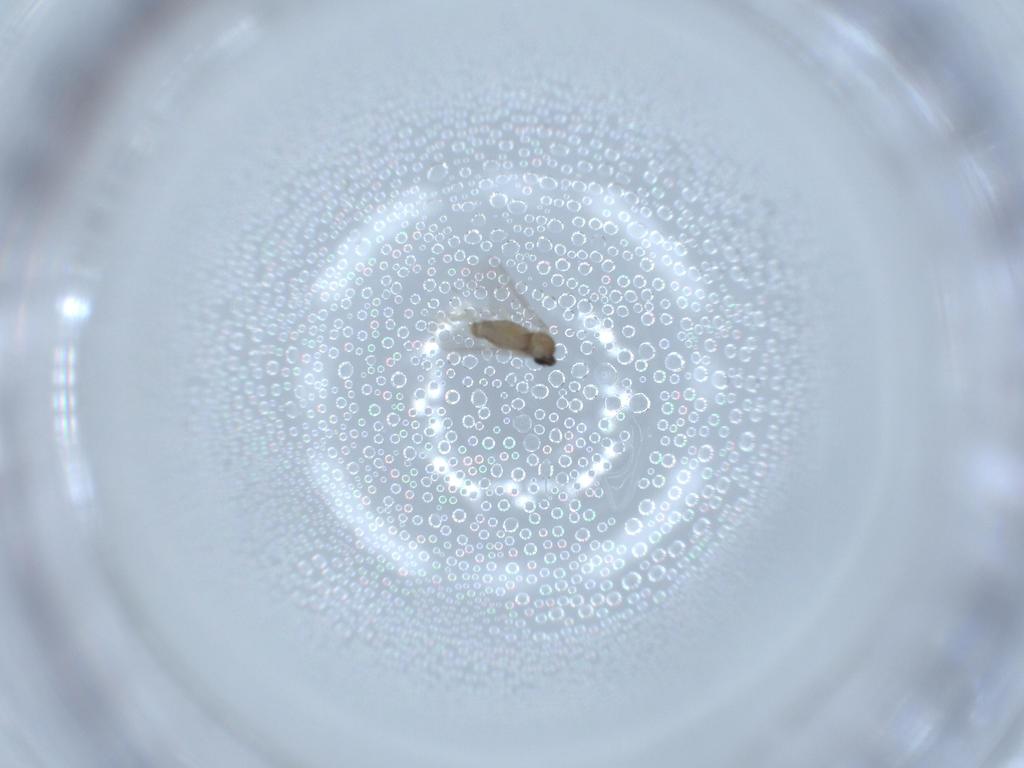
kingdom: Animalia
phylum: Arthropoda
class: Insecta
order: Diptera
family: Cecidomyiidae
